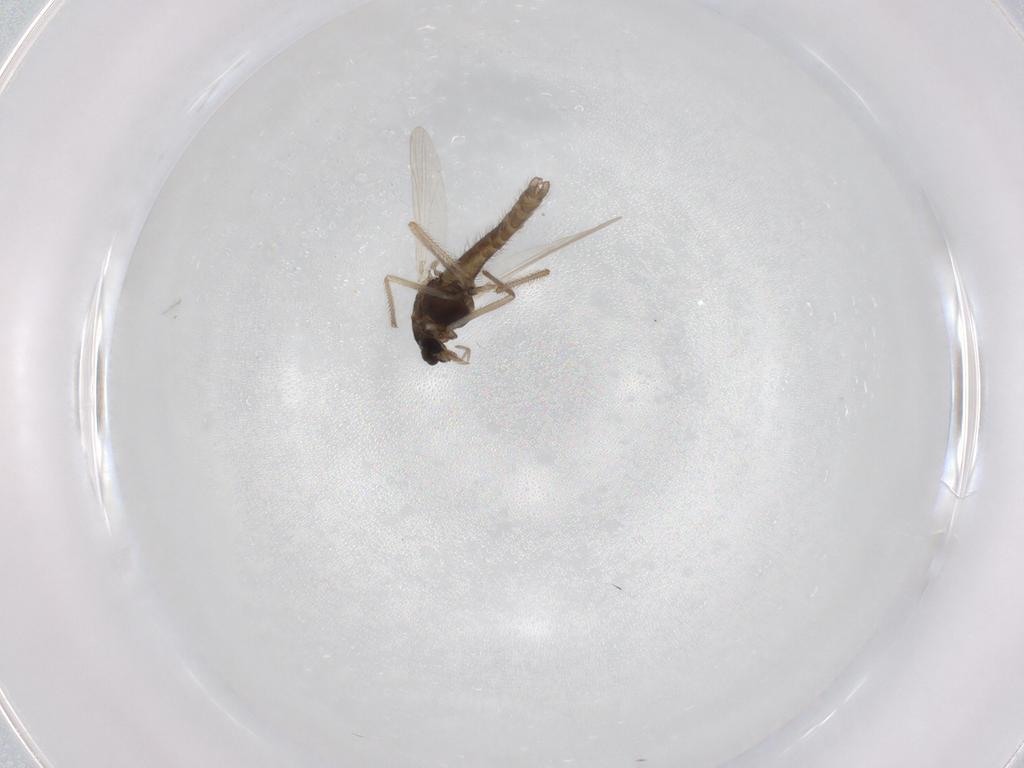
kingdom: Animalia
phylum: Arthropoda
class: Insecta
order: Diptera
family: Chironomidae
